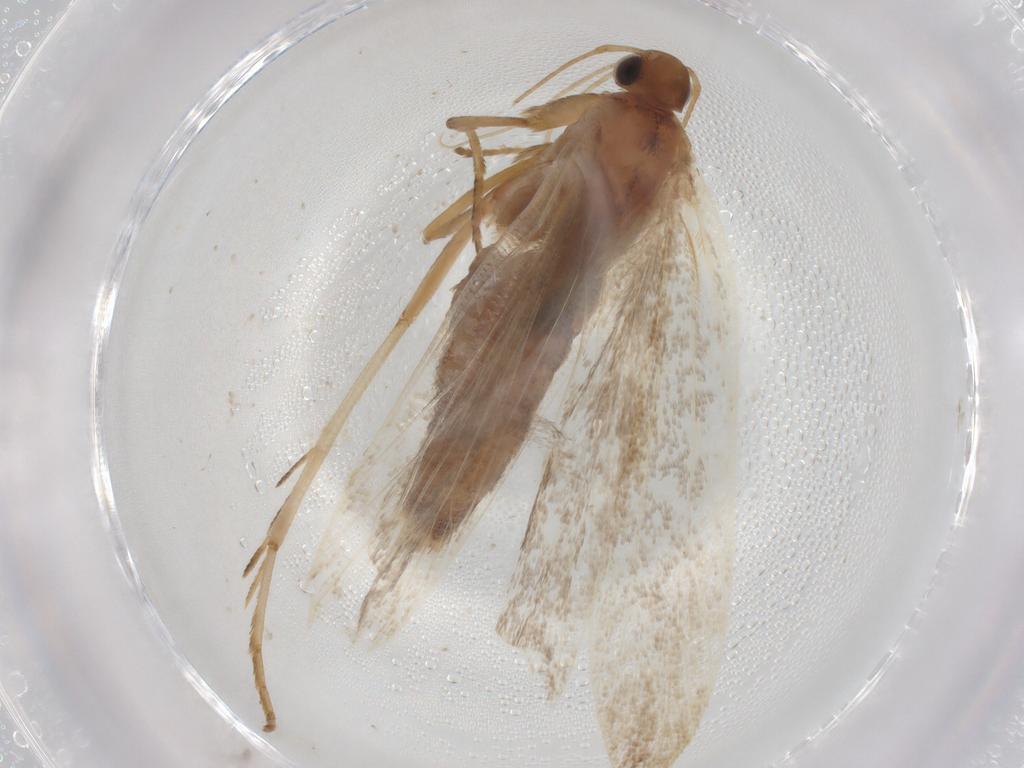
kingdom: Animalia
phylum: Arthropoda
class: Insecta
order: Lepidoptera
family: Gelechiidae
